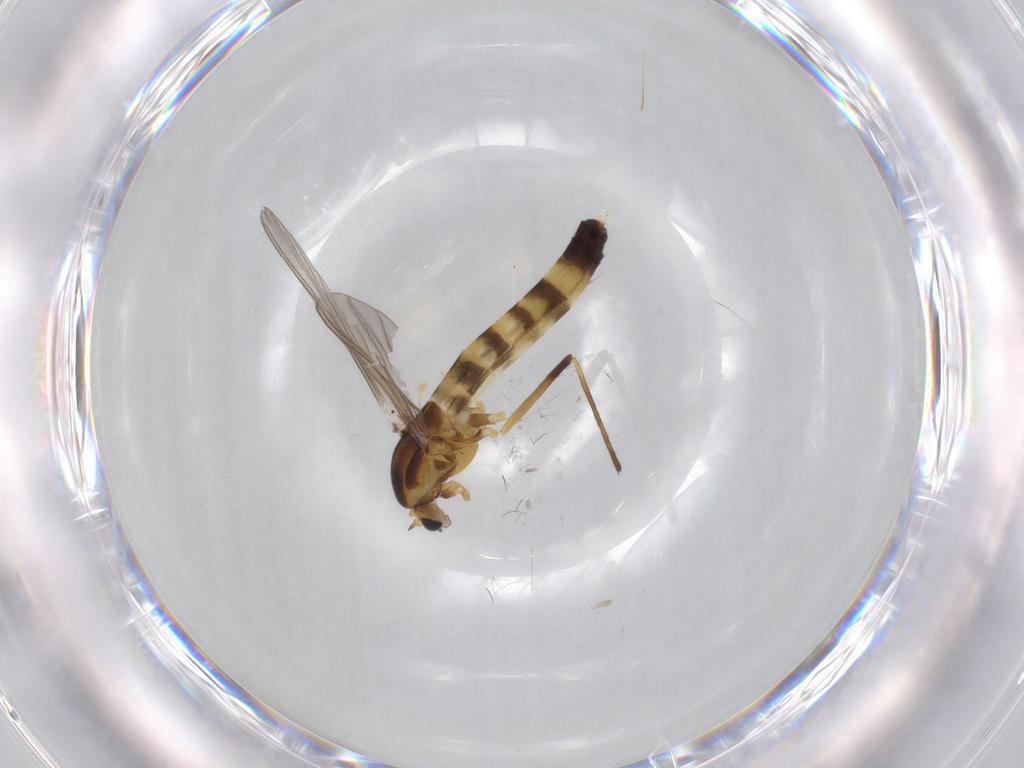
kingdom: Animalia
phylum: Arthropoda
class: Insecta
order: Diptera
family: Chironomidae
